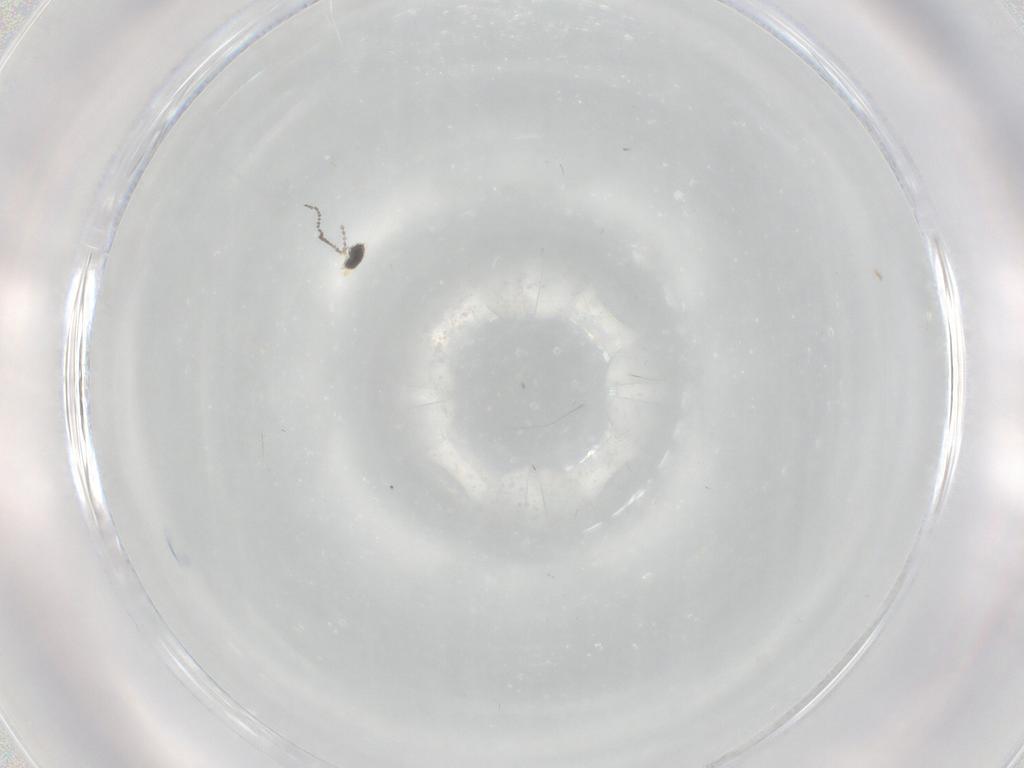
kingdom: Animalia
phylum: Arthropoda
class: Insecta
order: Diptera
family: Cecidomyiidae
